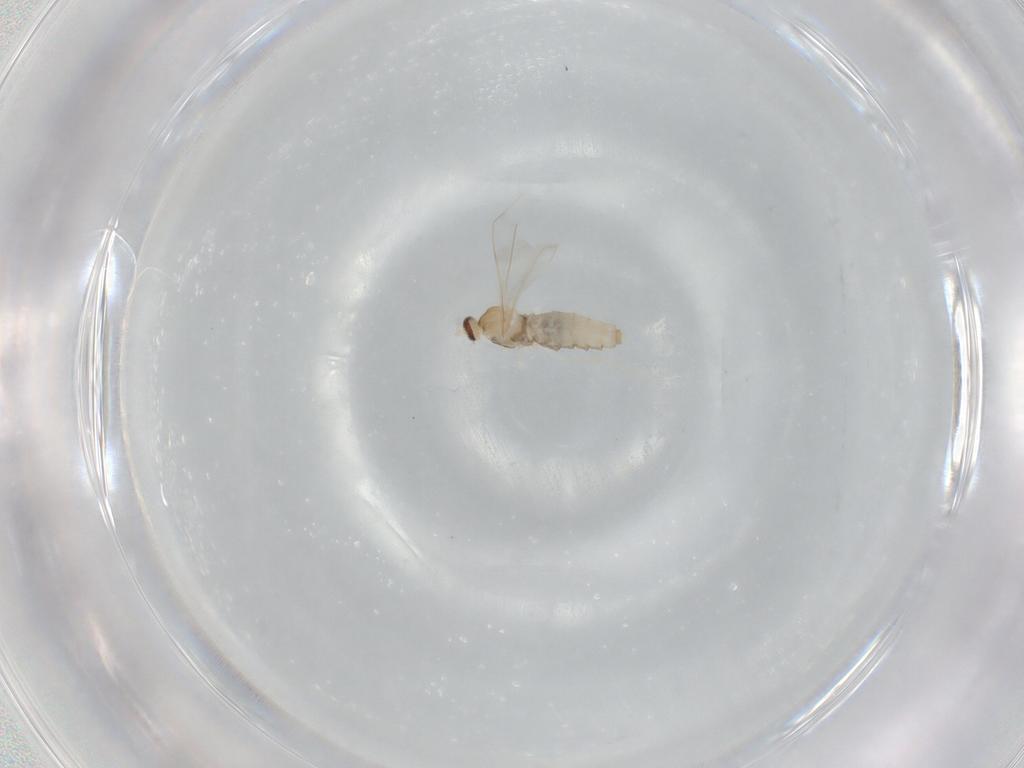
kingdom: Animalia
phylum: Arthropoda
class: Insecta
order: Diptera
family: Cecidomyiidae
